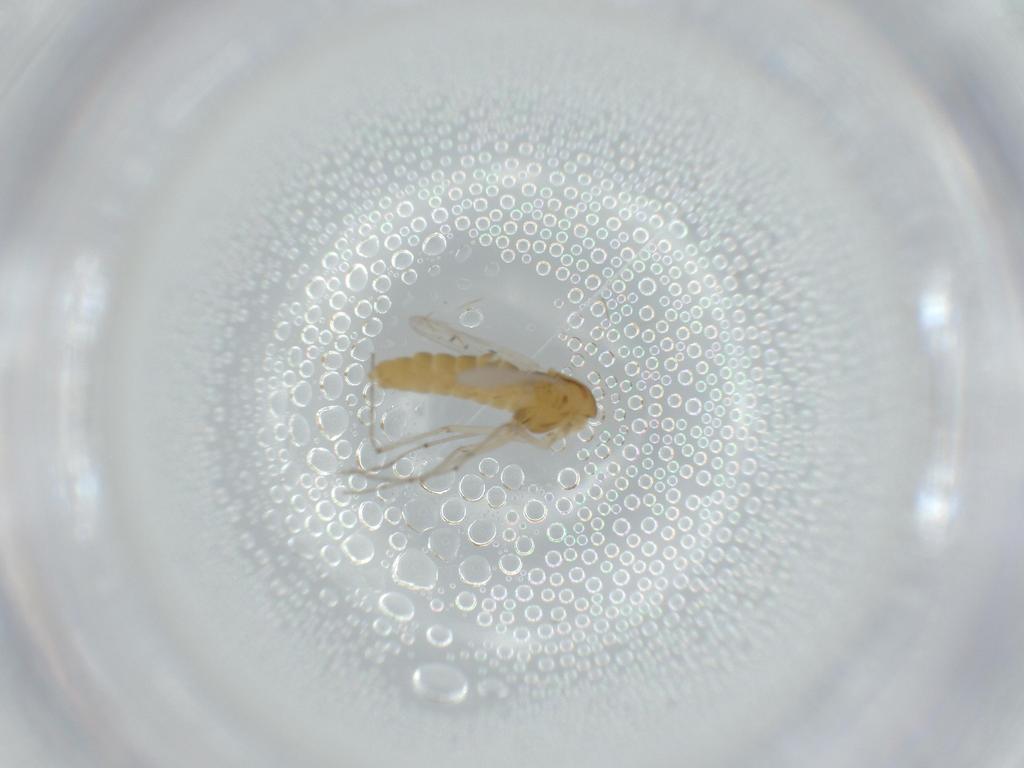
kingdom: Animalia
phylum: Arthropoda
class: Insecta
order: Diptera
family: Chironomidae
